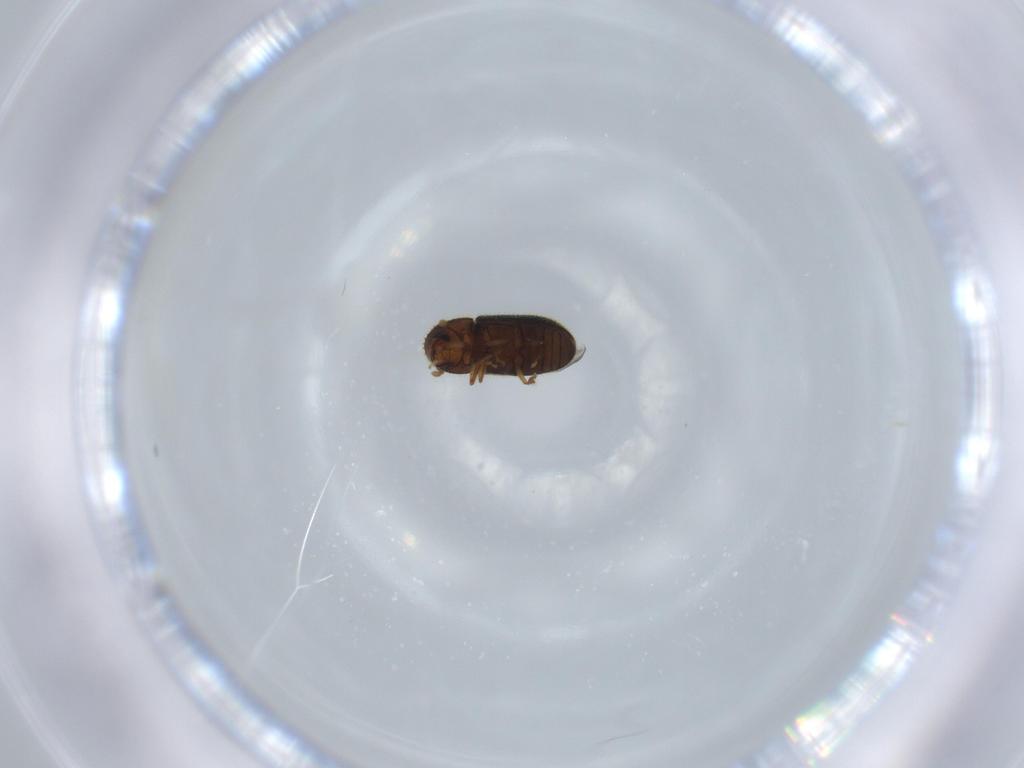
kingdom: Animalia
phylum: Arthropoda
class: Insecta
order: Coleoptera
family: Curculionidae
